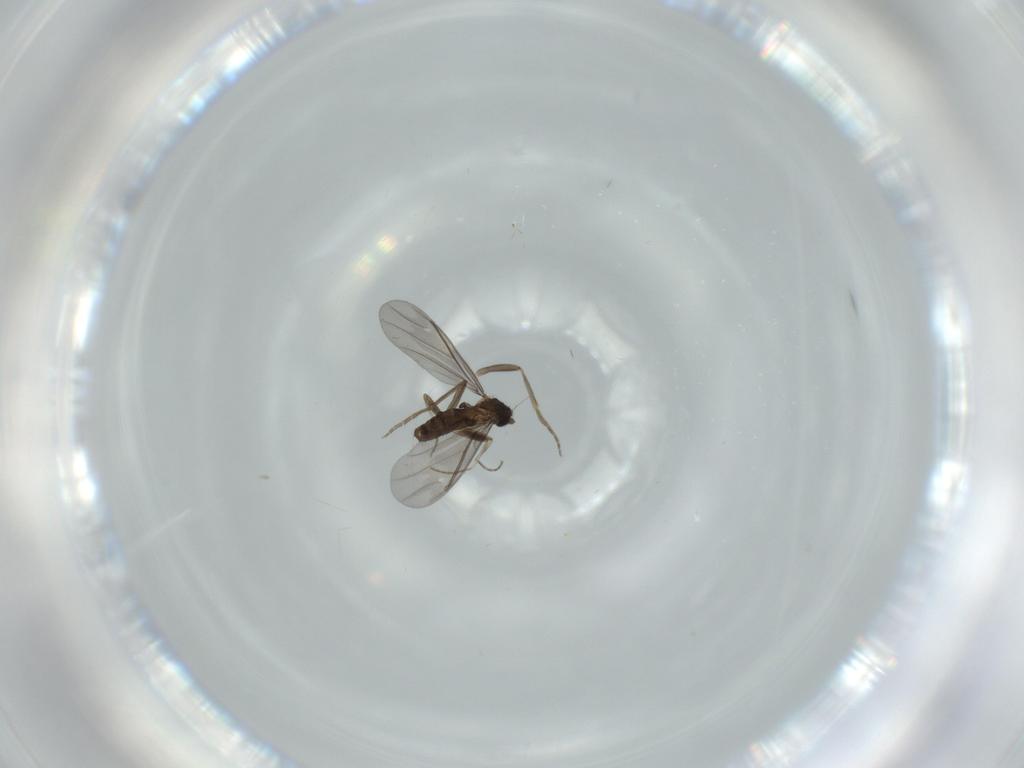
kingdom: Animalia
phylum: Arthropoda
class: Insecta
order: Diptera
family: Phoridae
